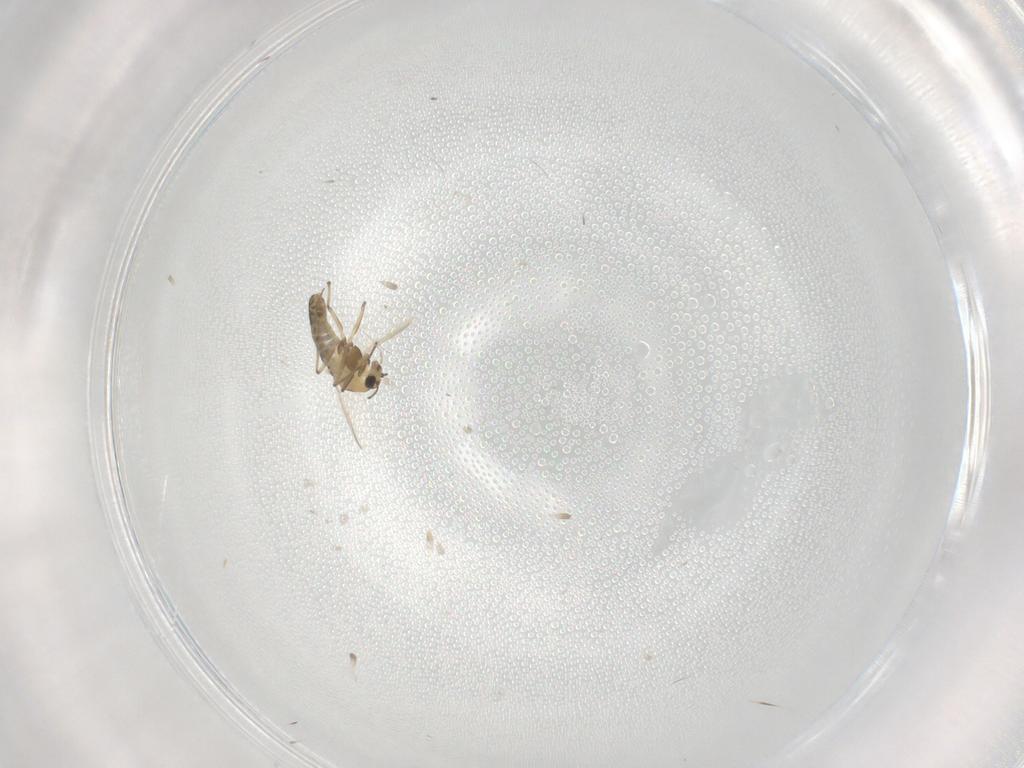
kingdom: Animalia
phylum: Arthropoda
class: Insecta
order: Diptera
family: Chironomidae
